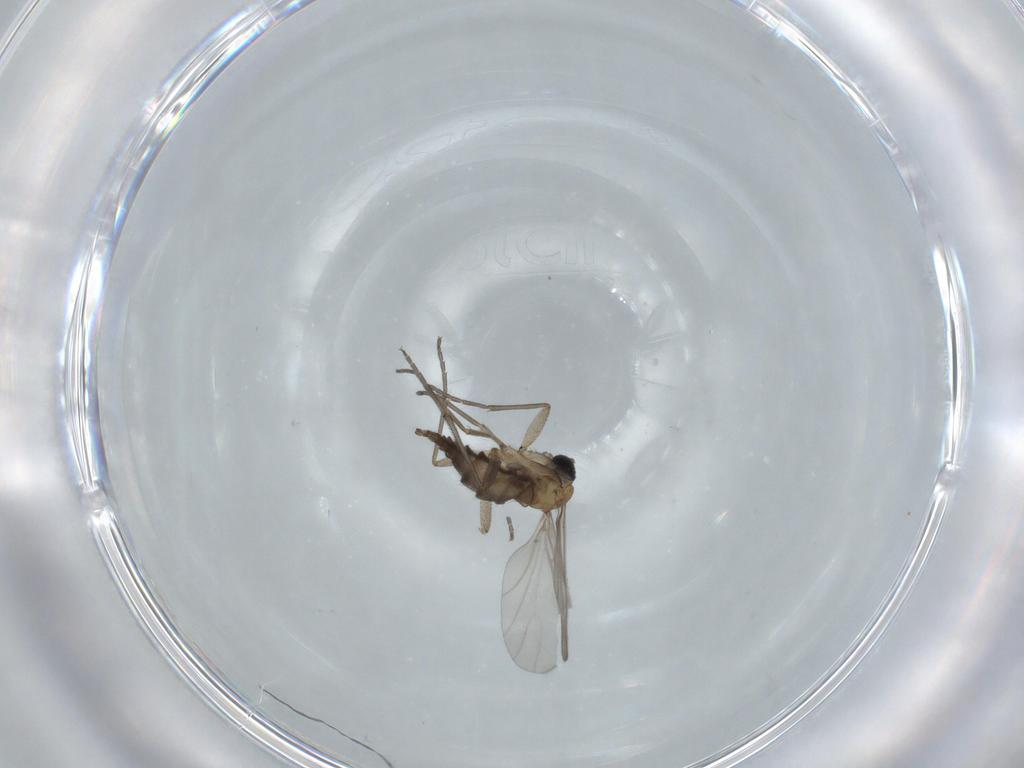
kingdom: Animalia
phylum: Arthropoda
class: Insecta
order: Diptera
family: Sciaridae
